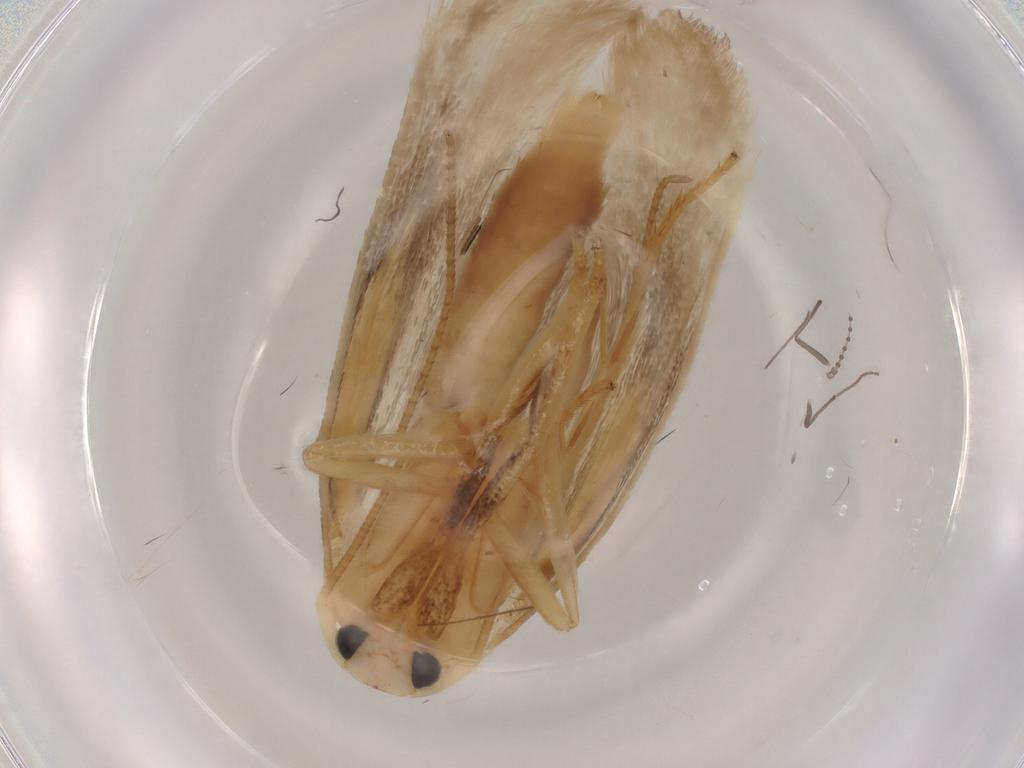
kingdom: Animalia
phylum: Arthropoda
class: Insecta
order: Lepidoptera
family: Geometridae
